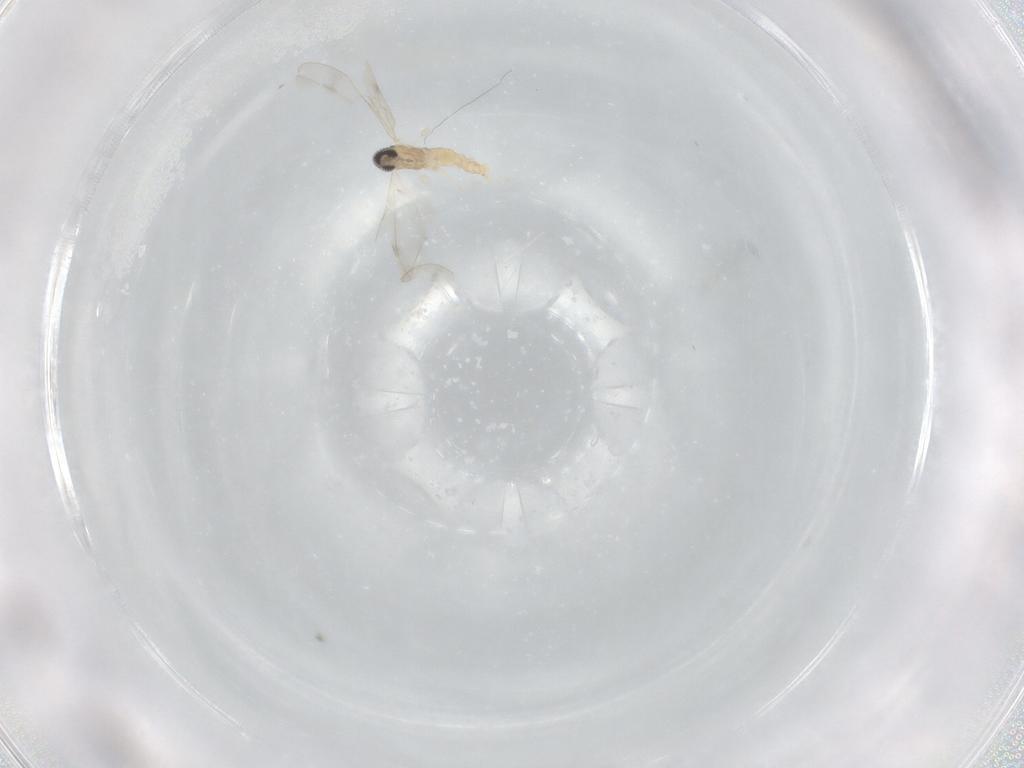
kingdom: Animalia
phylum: Arthropoda
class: Insecta
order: Diptera
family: Cecidomyiidae
